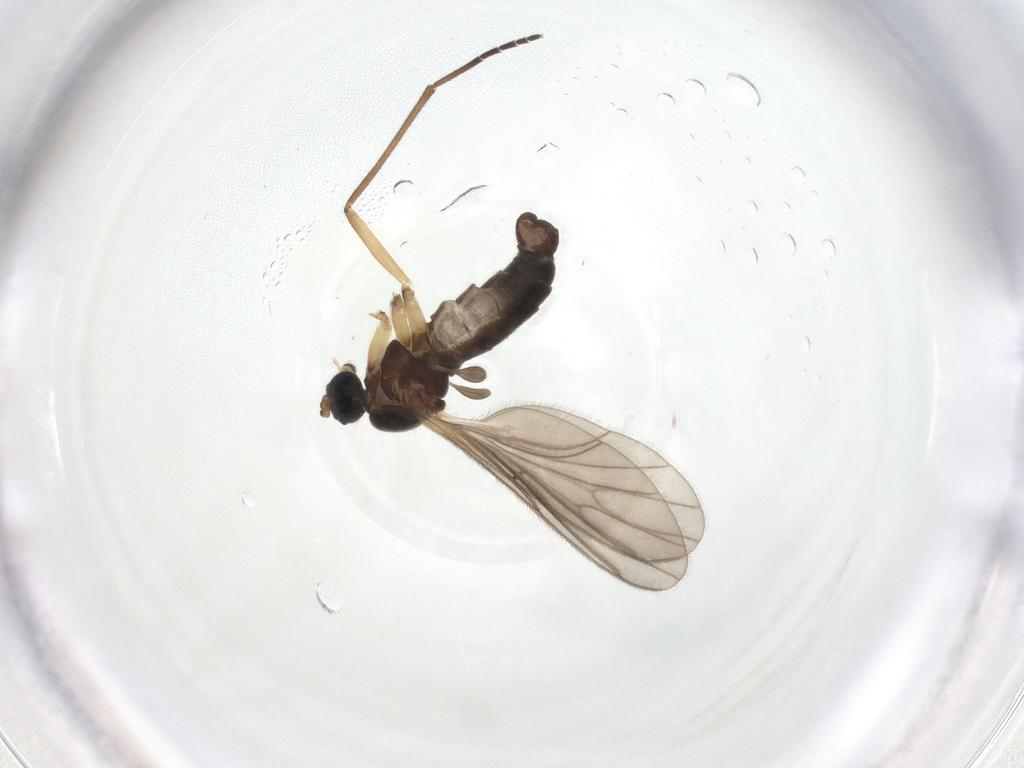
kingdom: Animalia
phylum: Arthropoda
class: Insecta
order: Diptera
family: Sciaridae
